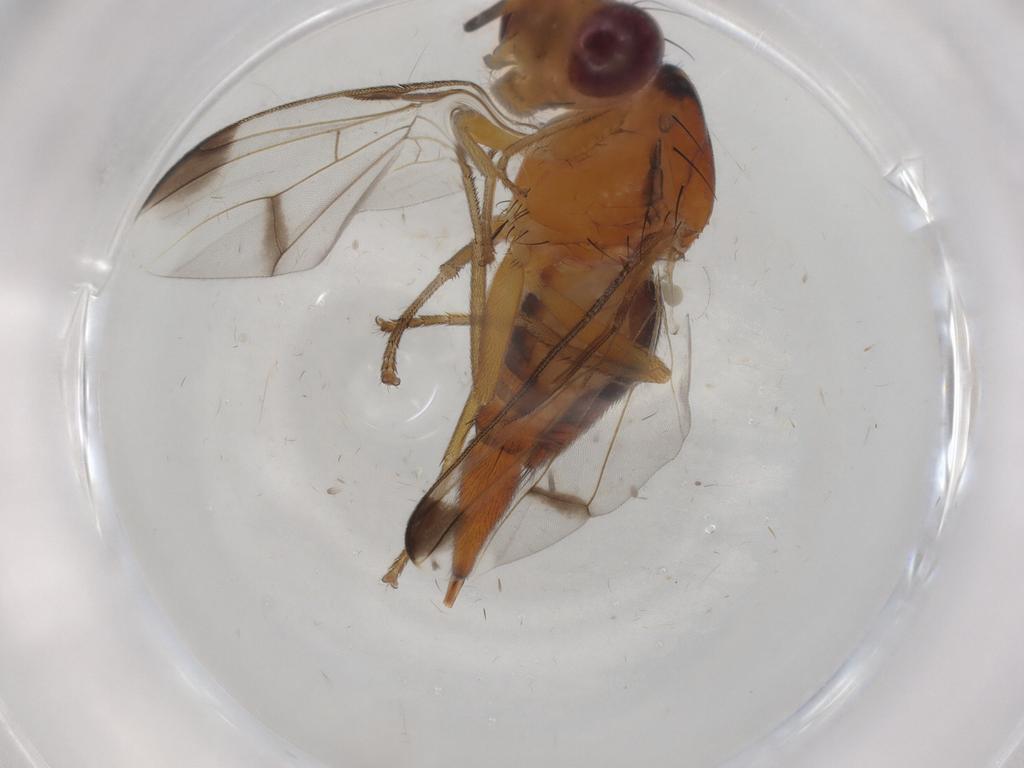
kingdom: Animalia
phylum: Arthropoda
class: Insecta
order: Diptera
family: Tephritidae
